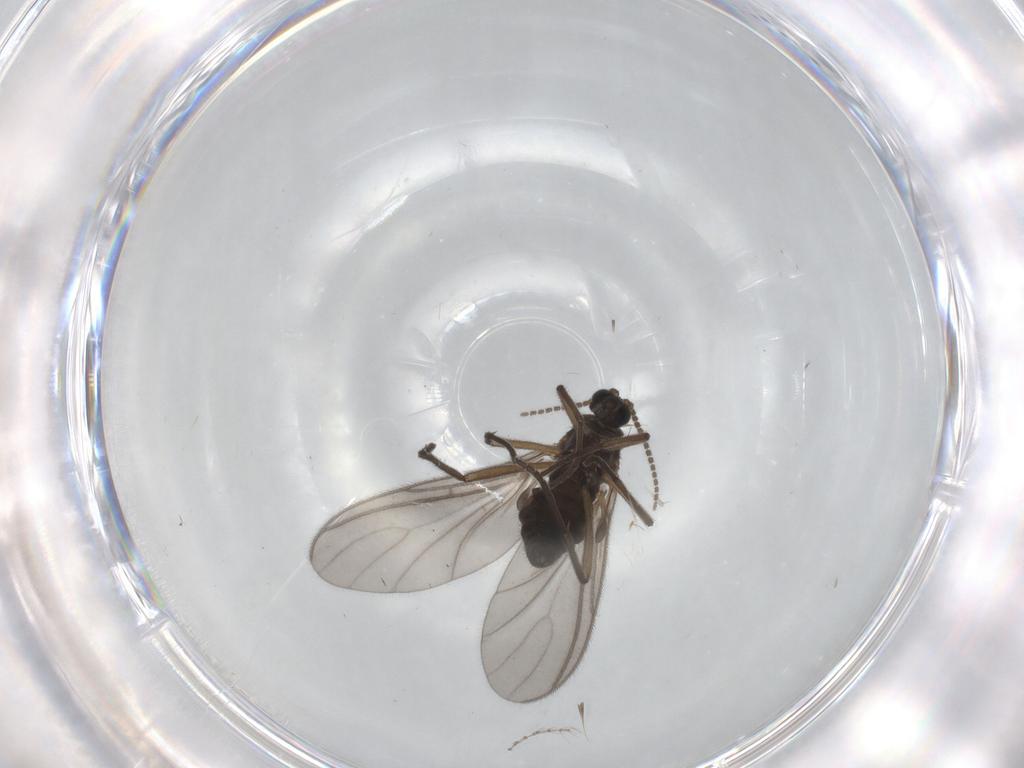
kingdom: Animalia
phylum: Arthropoda
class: Insecta
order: Diptera
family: Sciaridae
